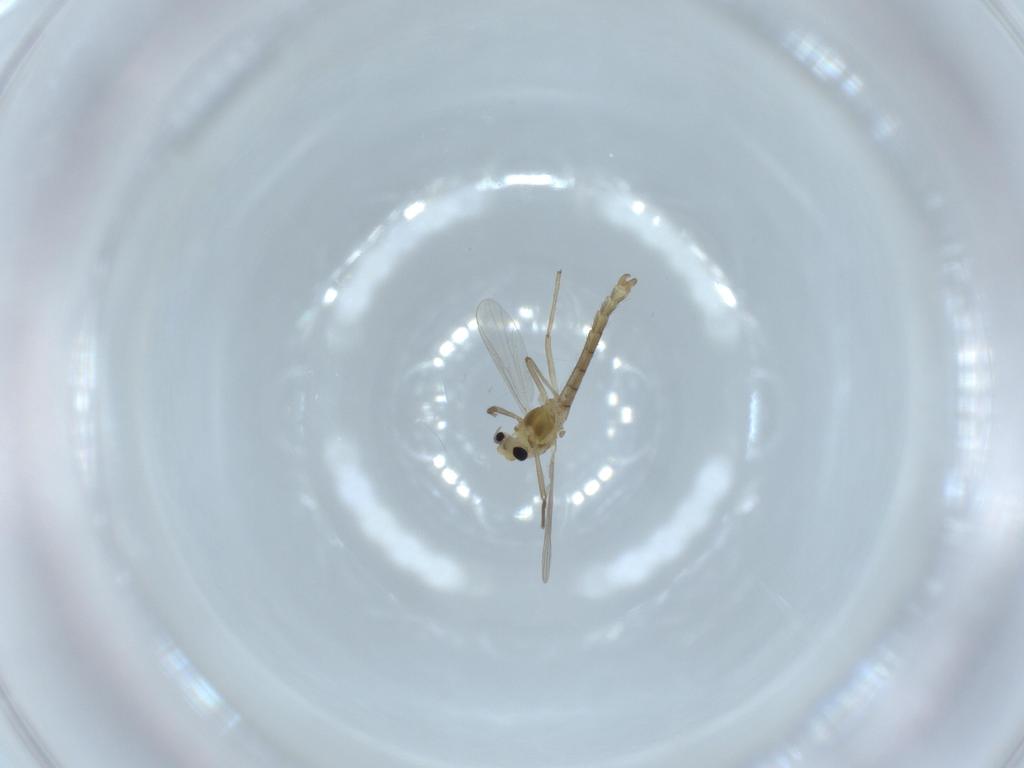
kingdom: Animalia
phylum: Arthropoda
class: Insecta
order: Diptera
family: Chironomidae
